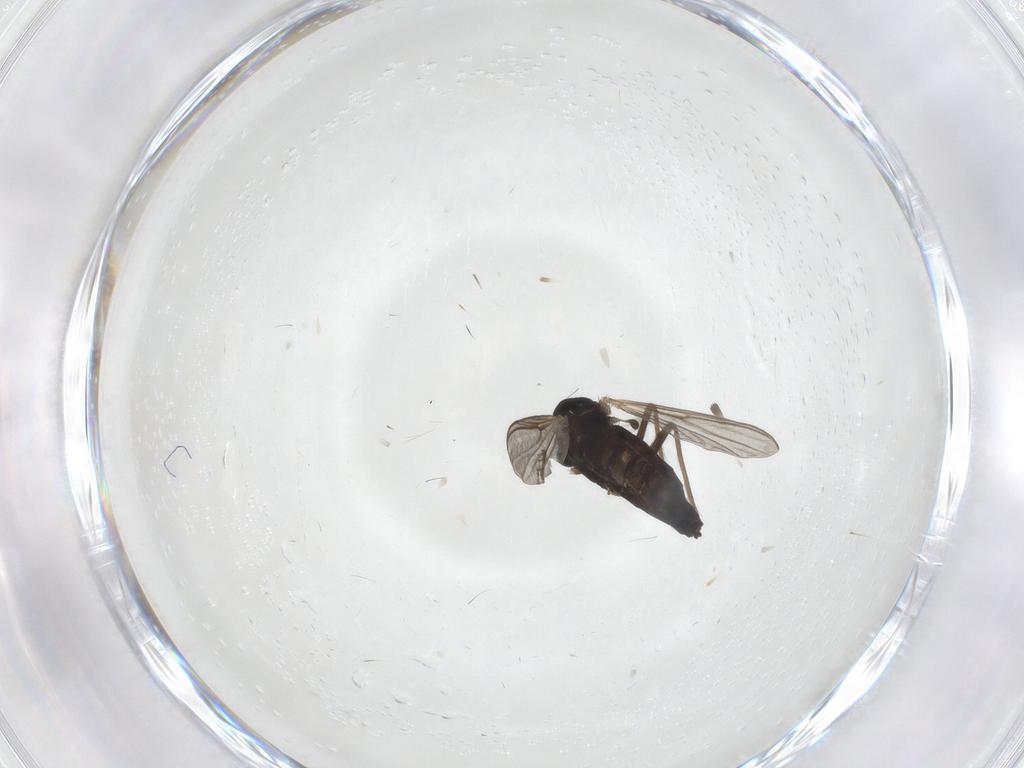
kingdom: Animalia
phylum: Arthropoda
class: Insecta
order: Diptera
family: Chironomidae
